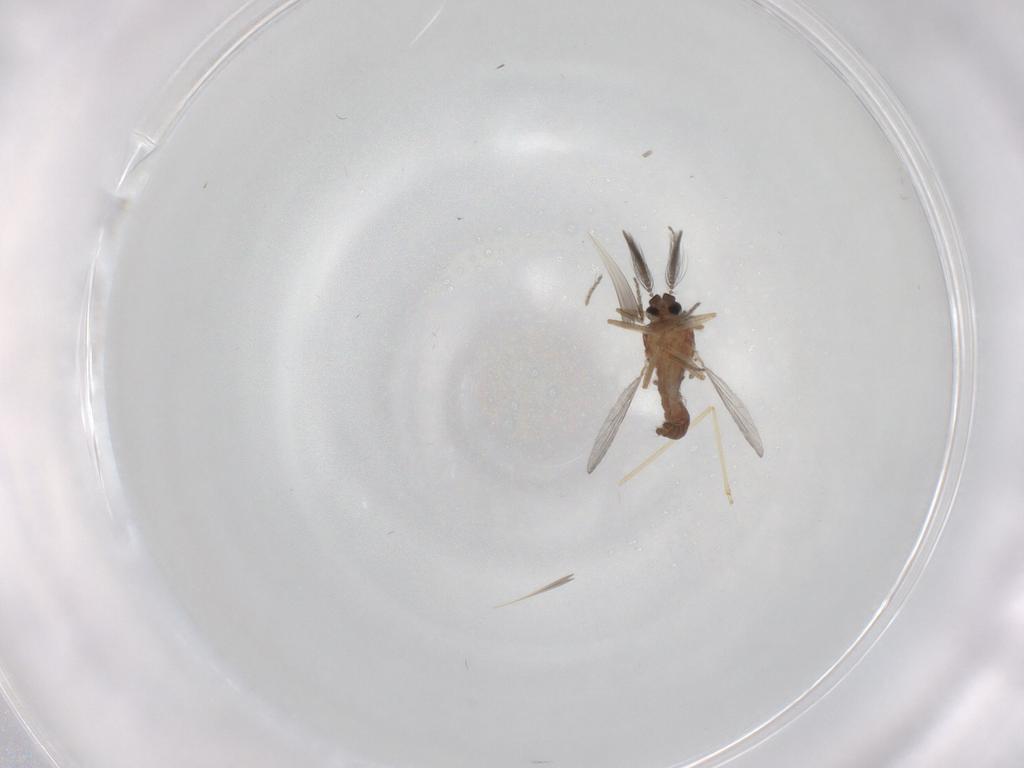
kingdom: Animalia
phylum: Arthropoda
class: Insecta
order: Diptera
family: Ceratopogonidae
